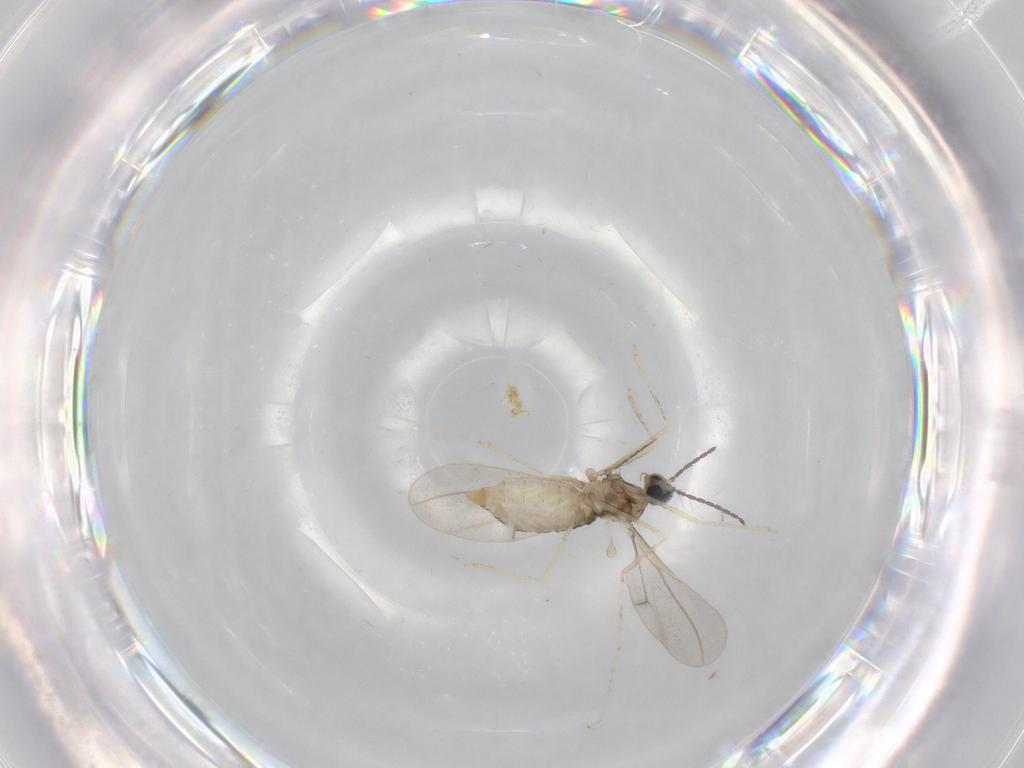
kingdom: Animalia
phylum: Arthropoda
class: Insecta
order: Diptera
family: Cecidomyiidae
